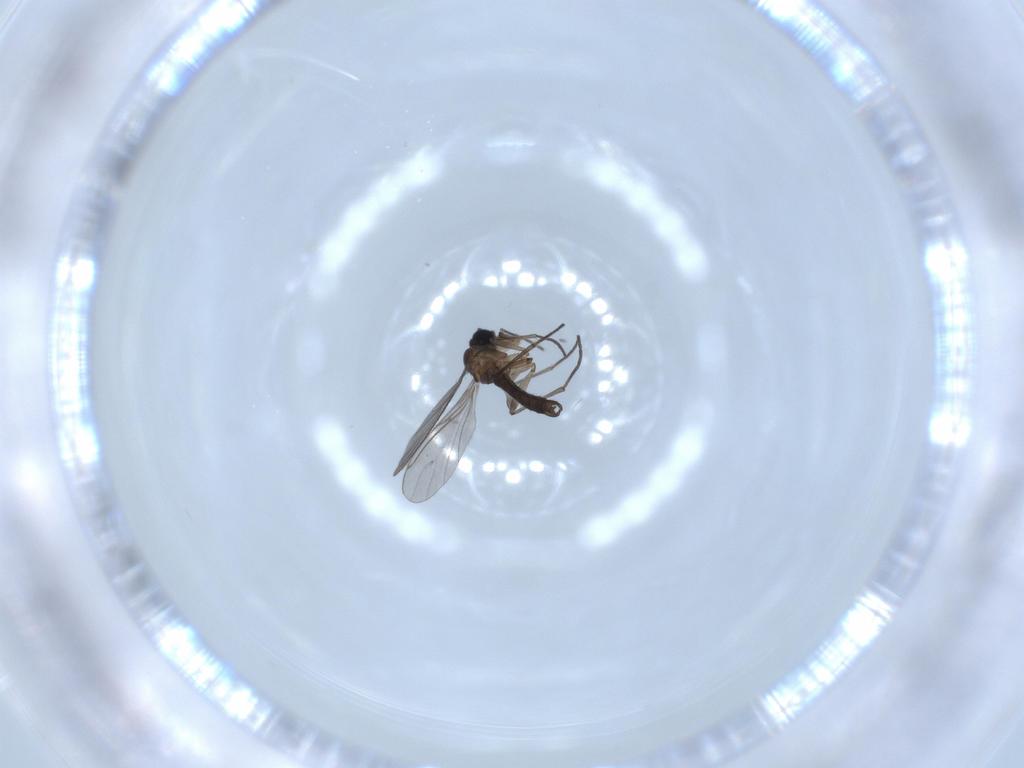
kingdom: Animalia
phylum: Arthropoda
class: Insecta
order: Diptera
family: Sciaridae
